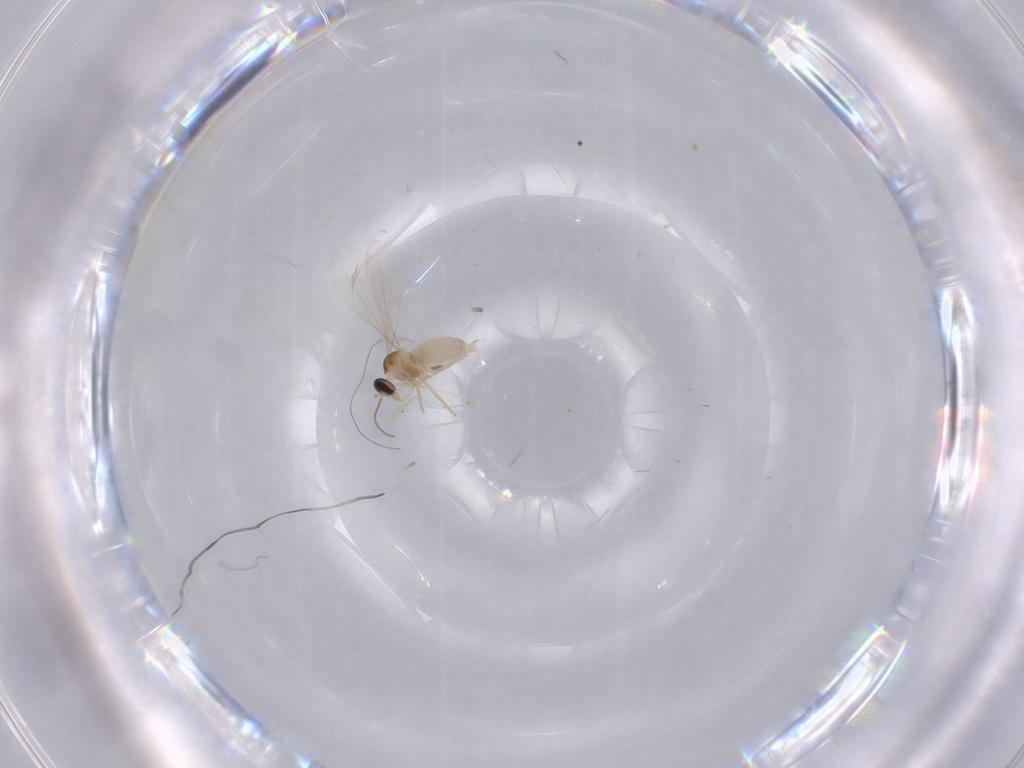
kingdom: Animalia
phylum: Arthropoda
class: Insecta
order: Diptera
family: Cecidomyiidae
